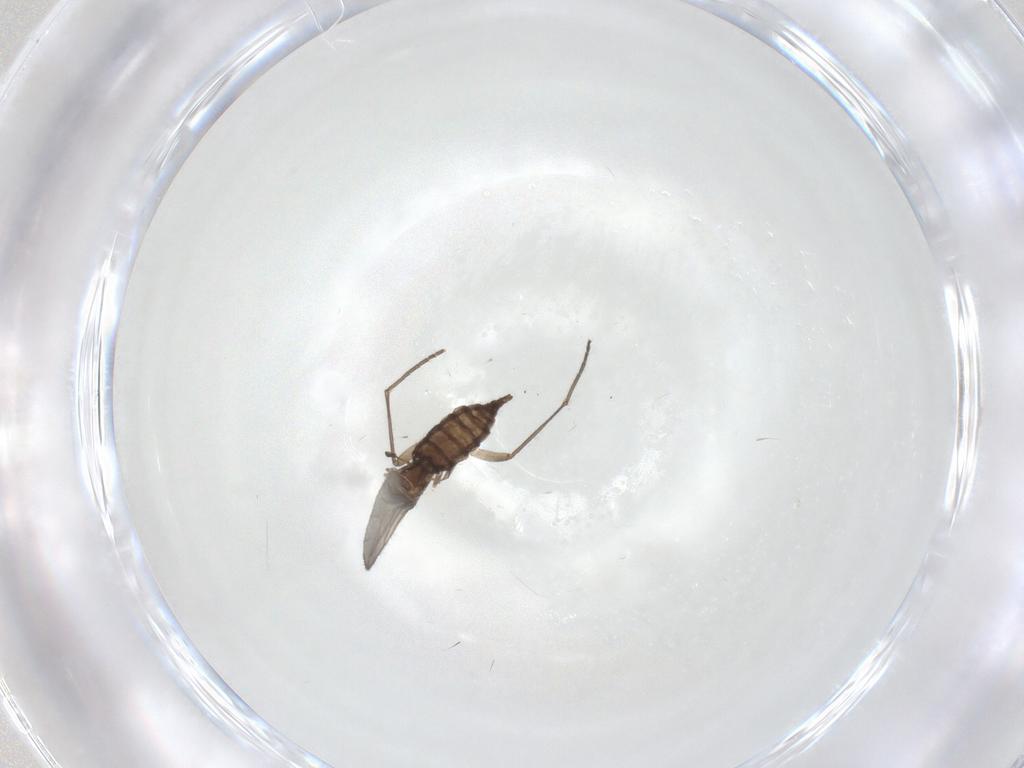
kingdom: Animalia
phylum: Arthropoda
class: Insecta
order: Diptera
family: Sciaridae
